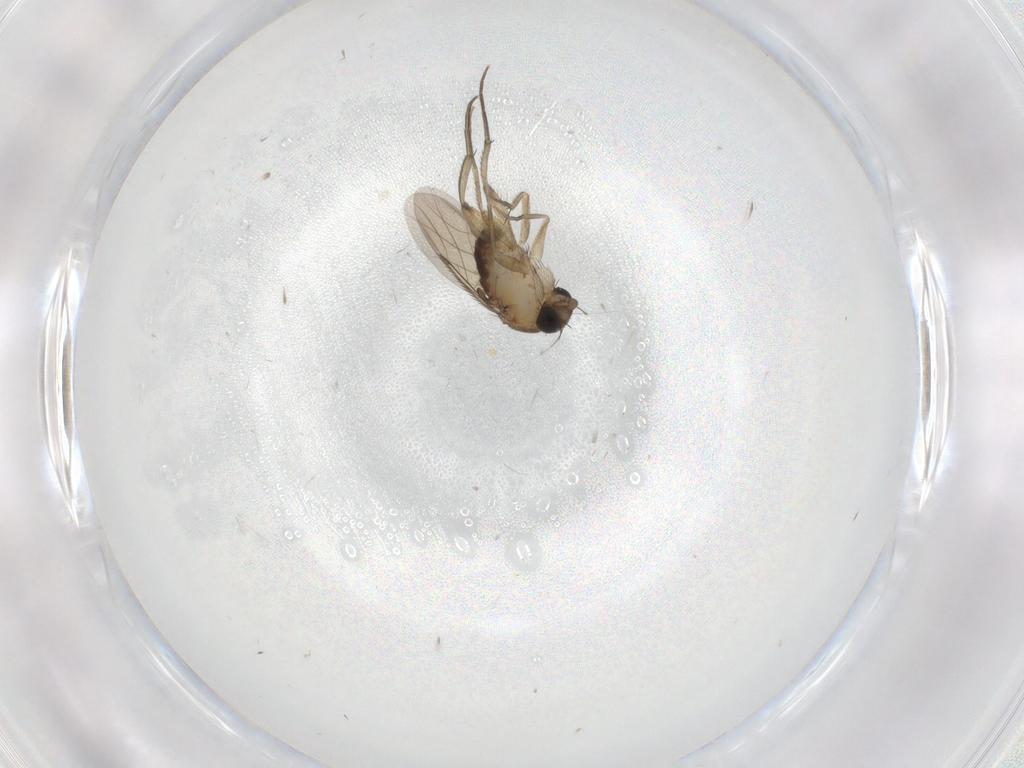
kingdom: Animalia
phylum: Arthropoda
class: Insecta
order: Diptera
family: Phoridae
